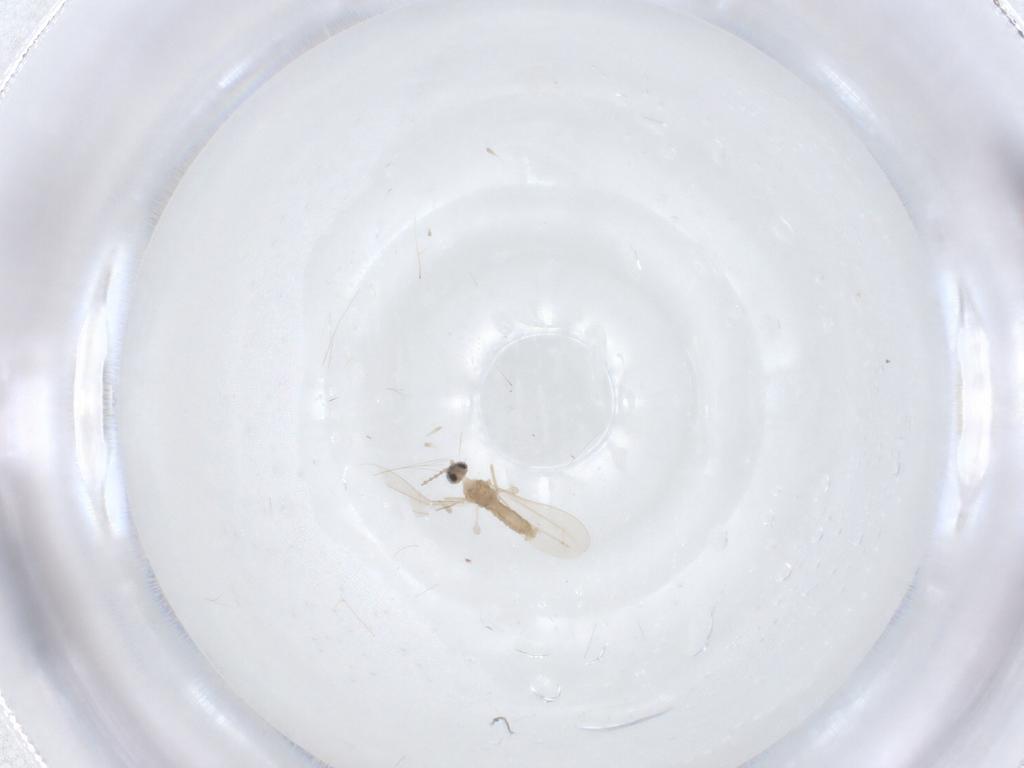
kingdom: Animalia
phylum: Arthropoda
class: Insecta
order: Diptera
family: Cecidomyiidae
